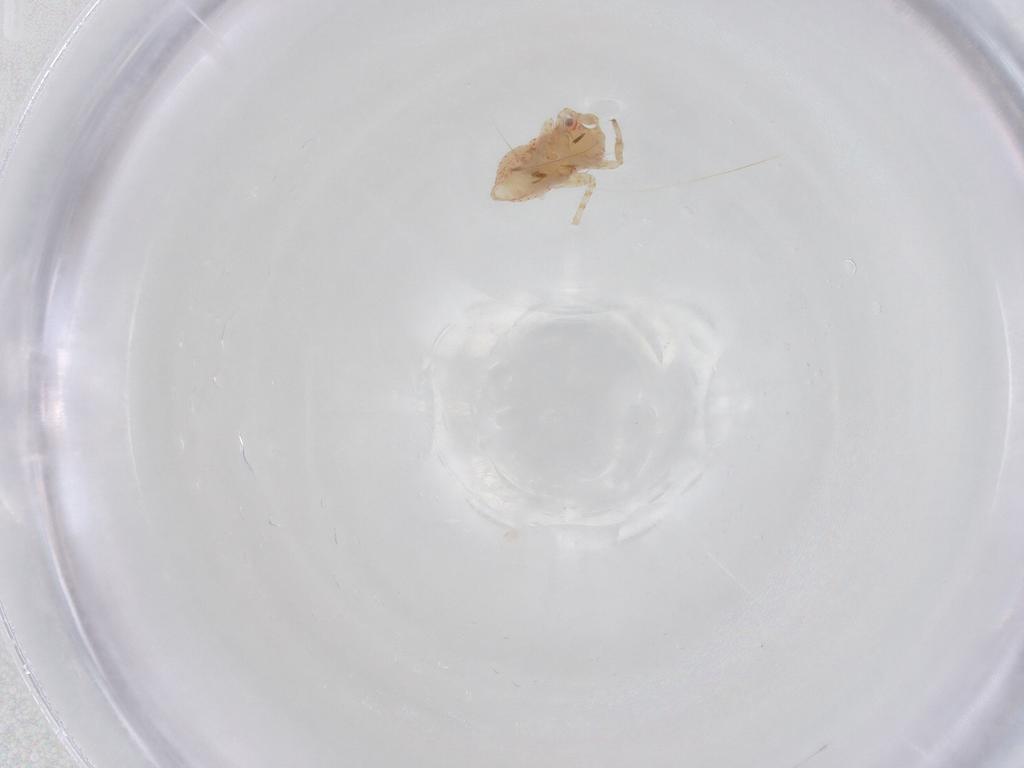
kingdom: Animalia
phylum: Arthropoda
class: Insecta
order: Hemiptera
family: Miridae
